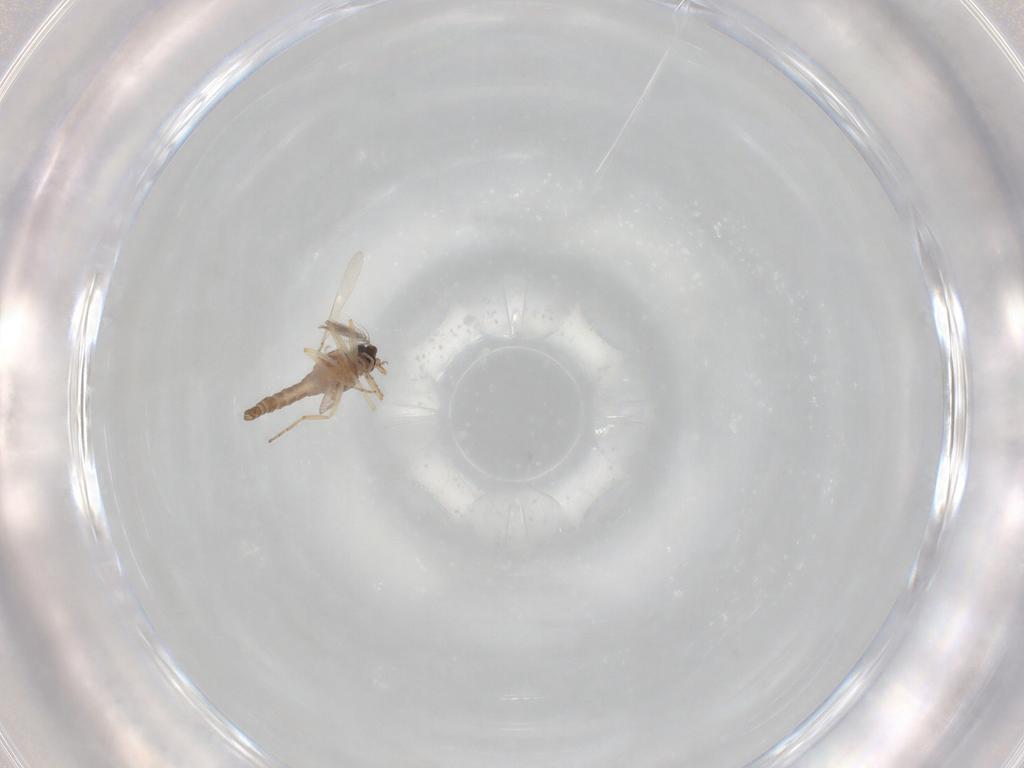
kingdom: Animalia
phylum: Arthropoda
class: Insecta
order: Diptera
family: Ceratopogonidae
